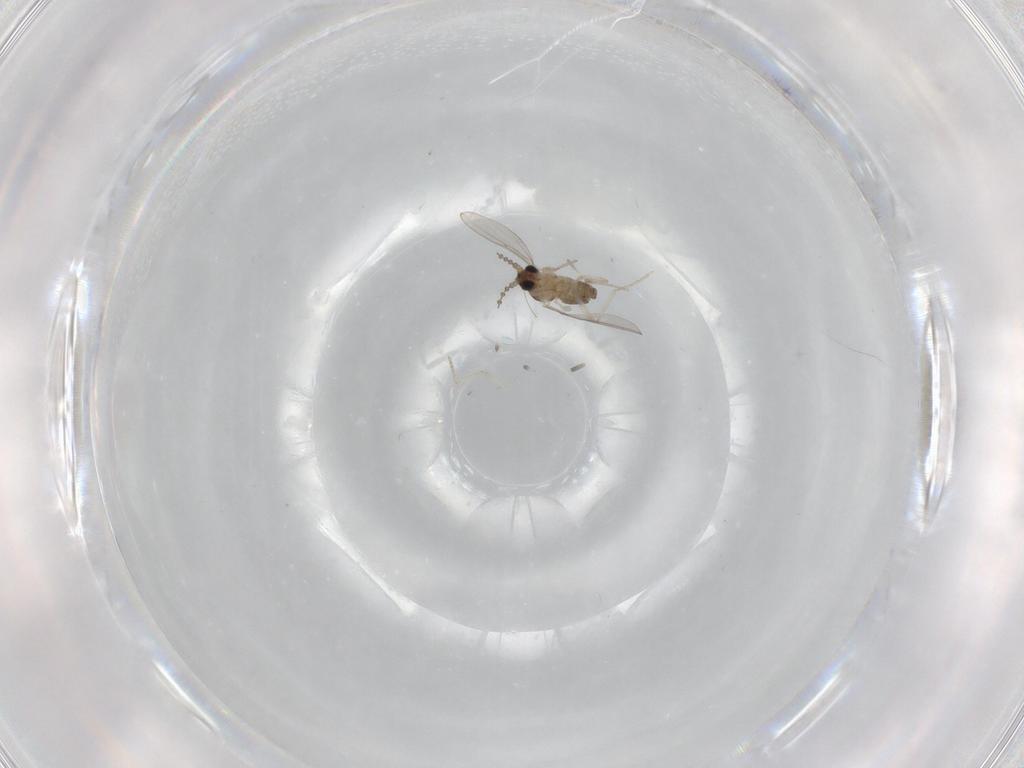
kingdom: Animalia
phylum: Arthropoda
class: Insecta
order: Diptera
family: Cecidomyiidae
